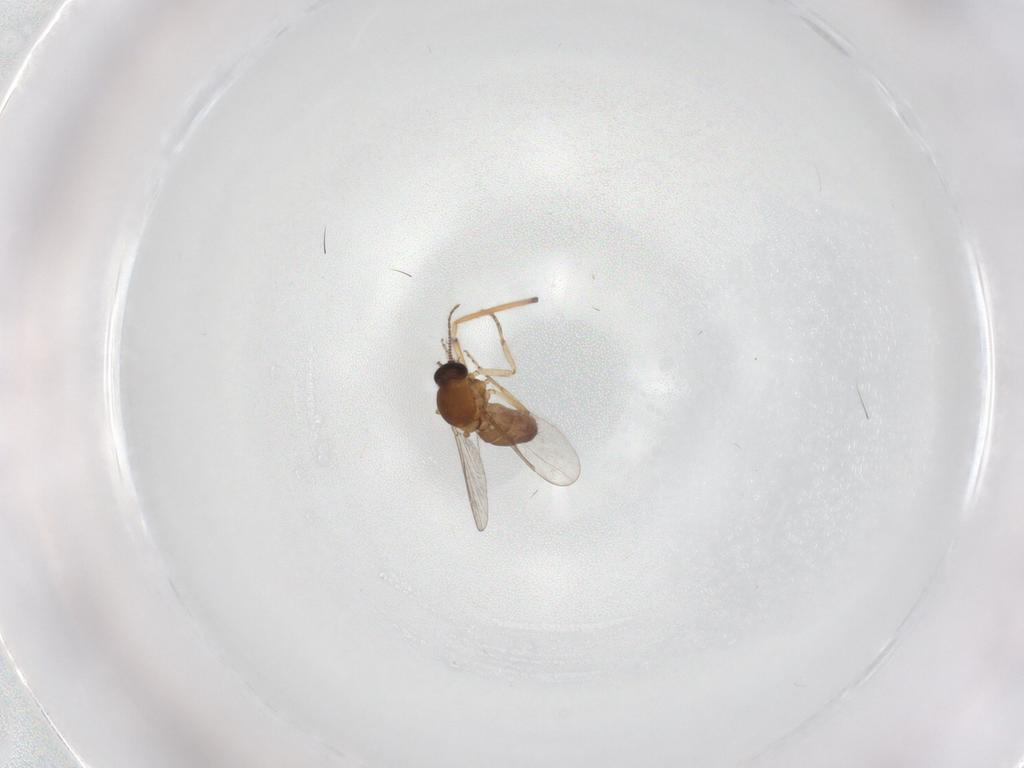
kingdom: Animalia
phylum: Arthropoda
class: Insecta
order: Diptera
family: Dolichopodidae
